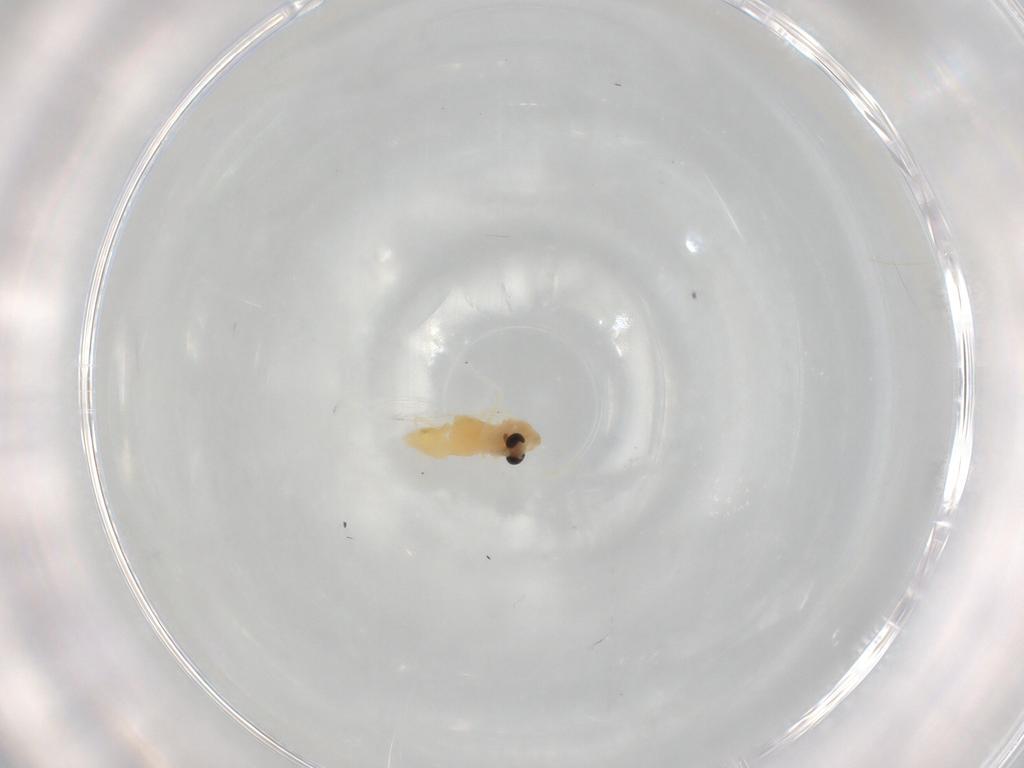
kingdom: Animalia
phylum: Arthropoda
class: Insecta
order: Diptera
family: Chironomidae
